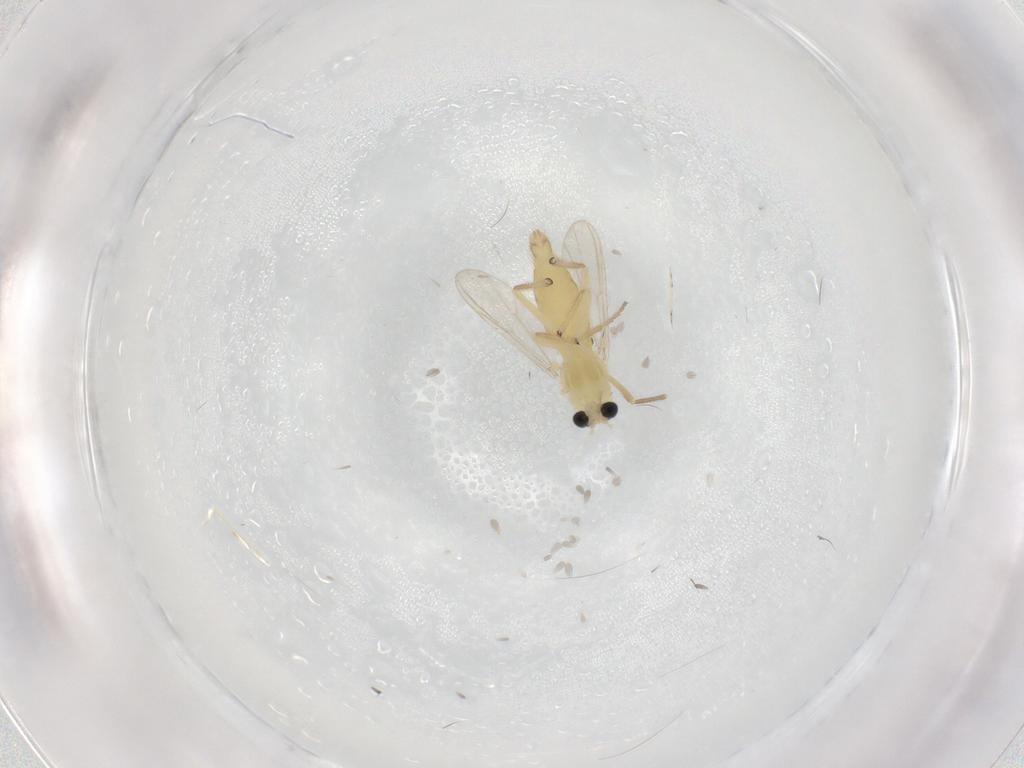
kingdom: Animalia
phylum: Arthropoda
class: Insecta
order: Diptera
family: Chironomidae
